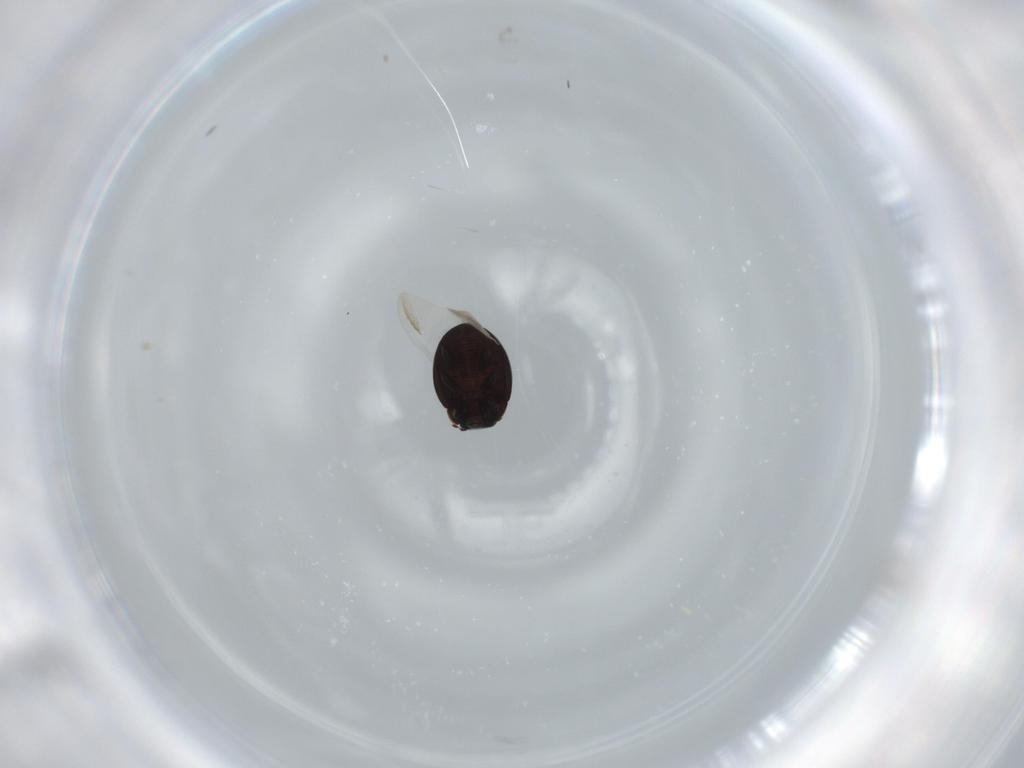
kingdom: Animalia
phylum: Arthropoda
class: Insecta
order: Coleoptera
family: Coccinellidae
